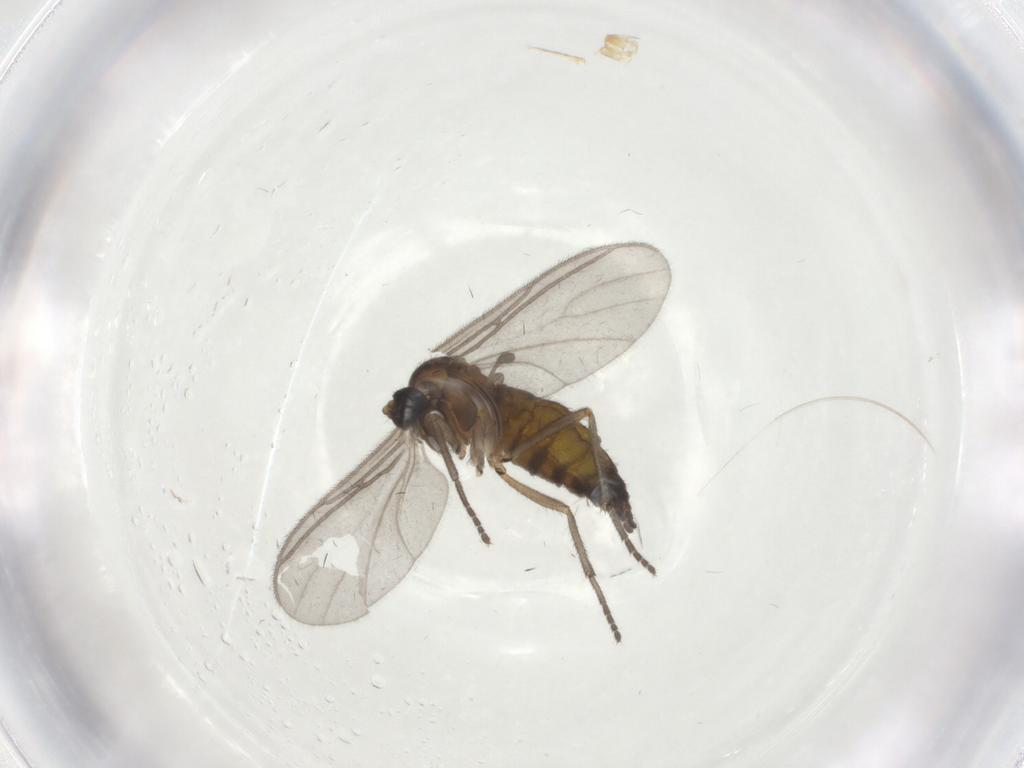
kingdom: Animalia
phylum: Arthropoda
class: Insecta
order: Diptera
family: Sciaridae
